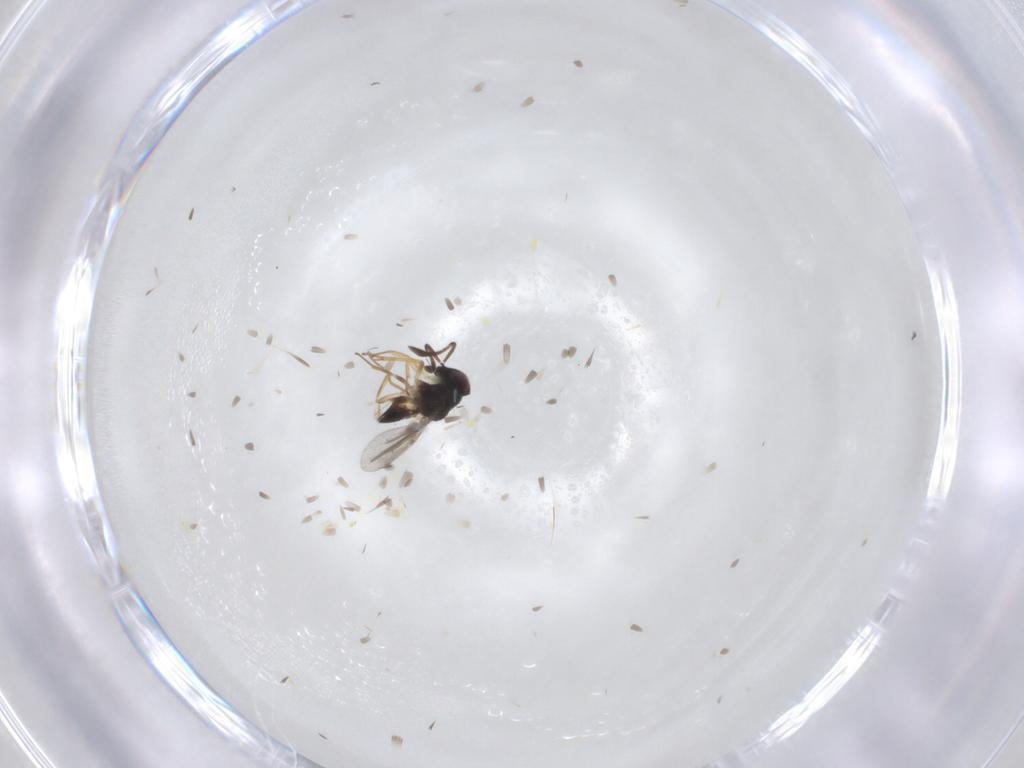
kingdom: Animalia
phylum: Arthropoda
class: Insecta
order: Hymenoptera
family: Encyrtidae
